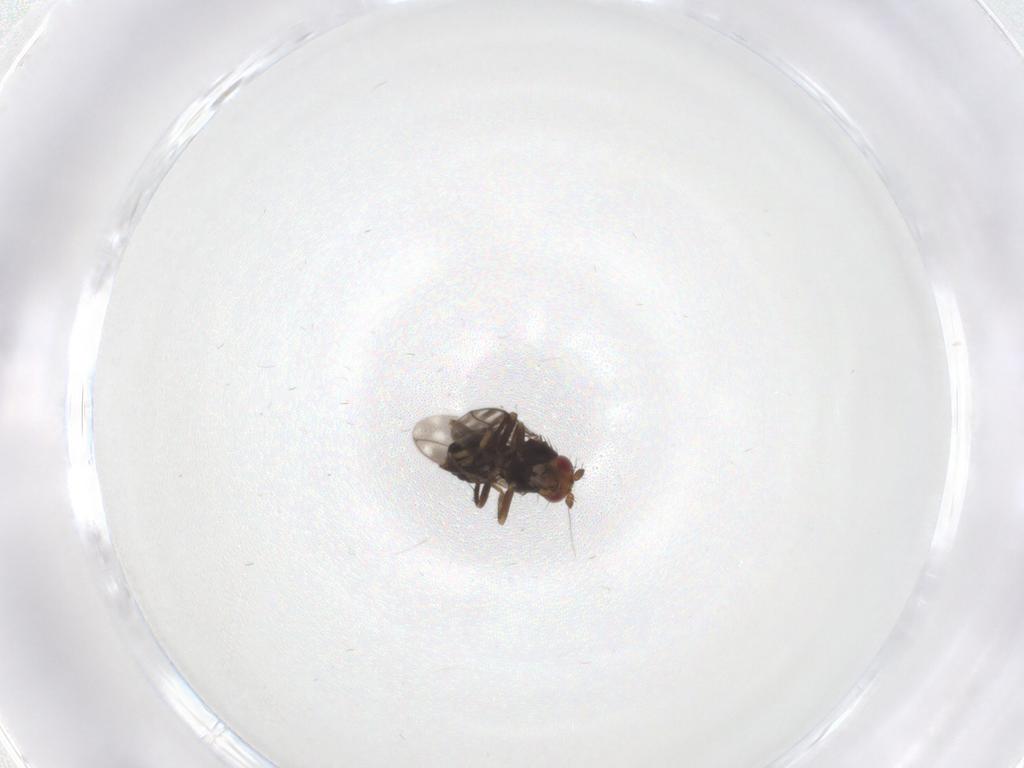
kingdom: Animalia
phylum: Arthropoda
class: Insecta
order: Diptera
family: Sphaeroceridae
